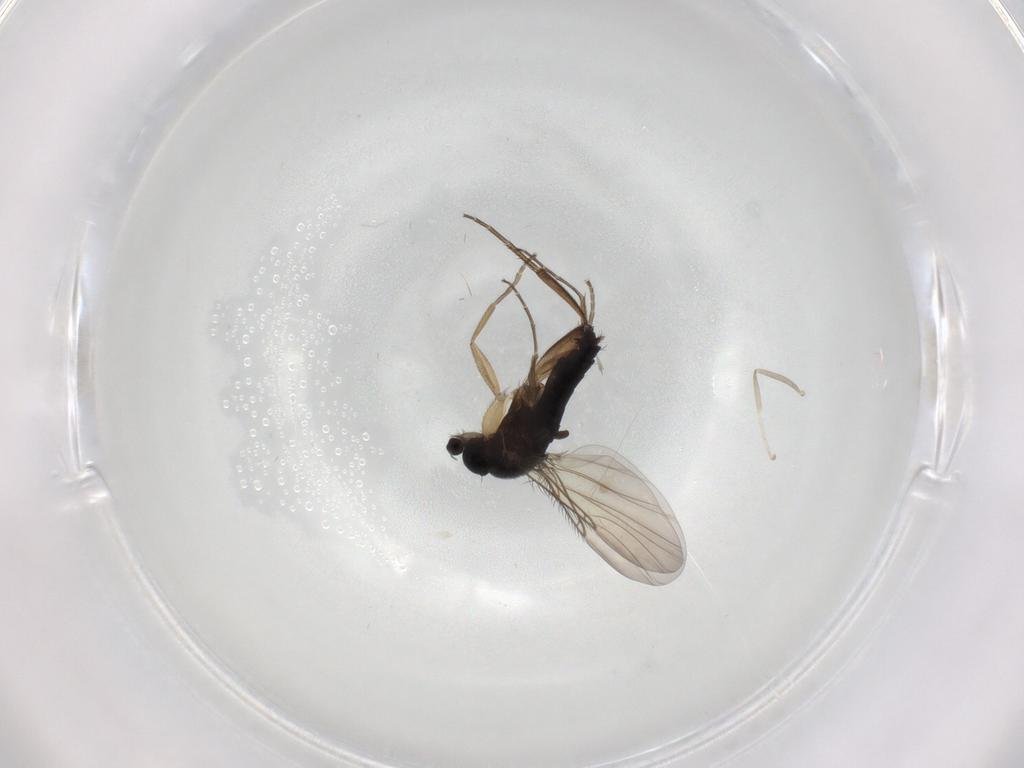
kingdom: Animalia
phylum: Arthropoda
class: Insecta
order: Diptera
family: Phoridae
